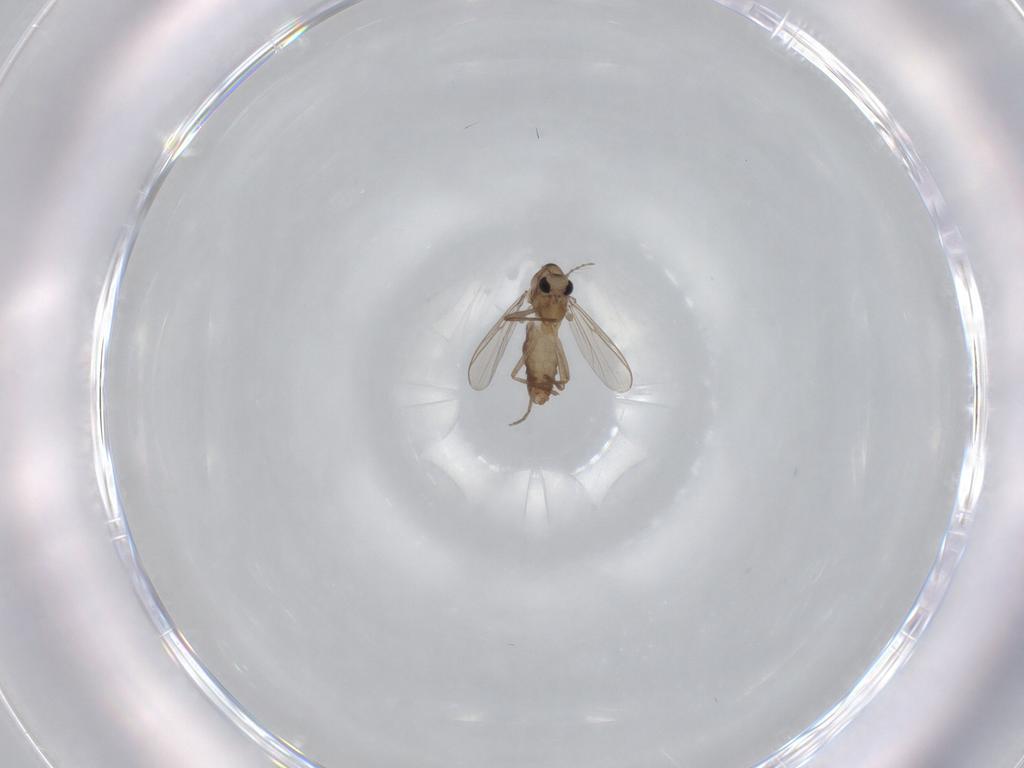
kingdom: Animalia
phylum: Arthropoda
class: Insecta
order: Diptera
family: Chironomidae
